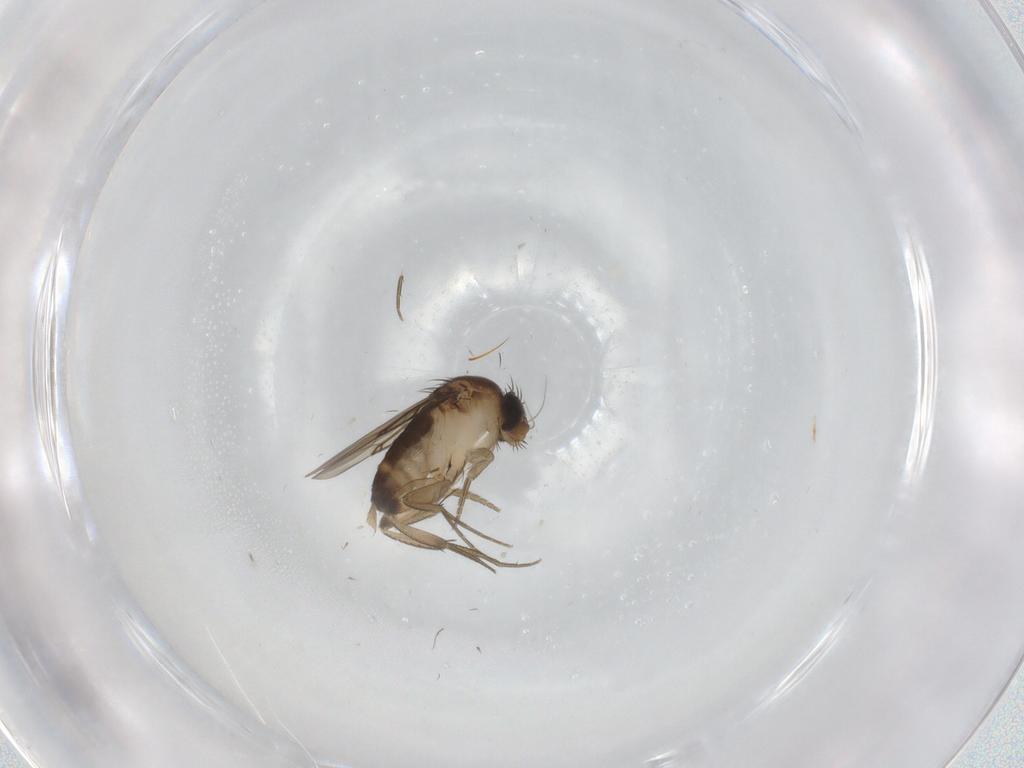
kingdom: Animalia
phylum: Arthropoda
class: Insecta
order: Diptera
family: Phoridae
